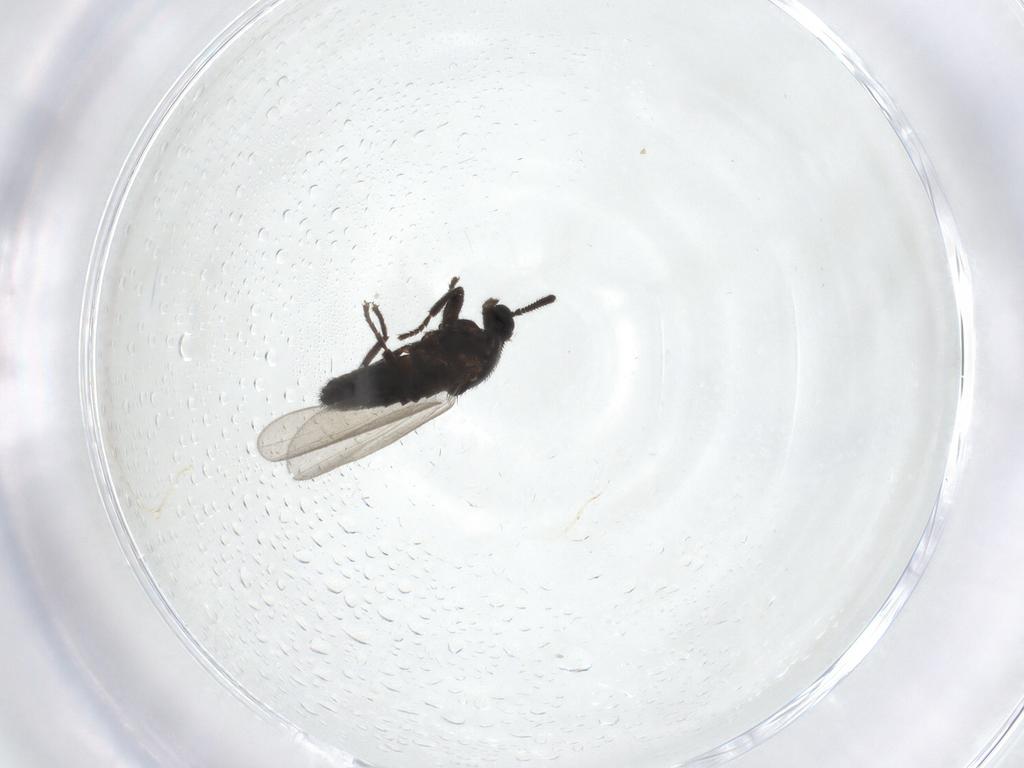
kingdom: Animalia
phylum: Arthropoda
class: Insecta
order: Diptera
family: Scatopsidae
